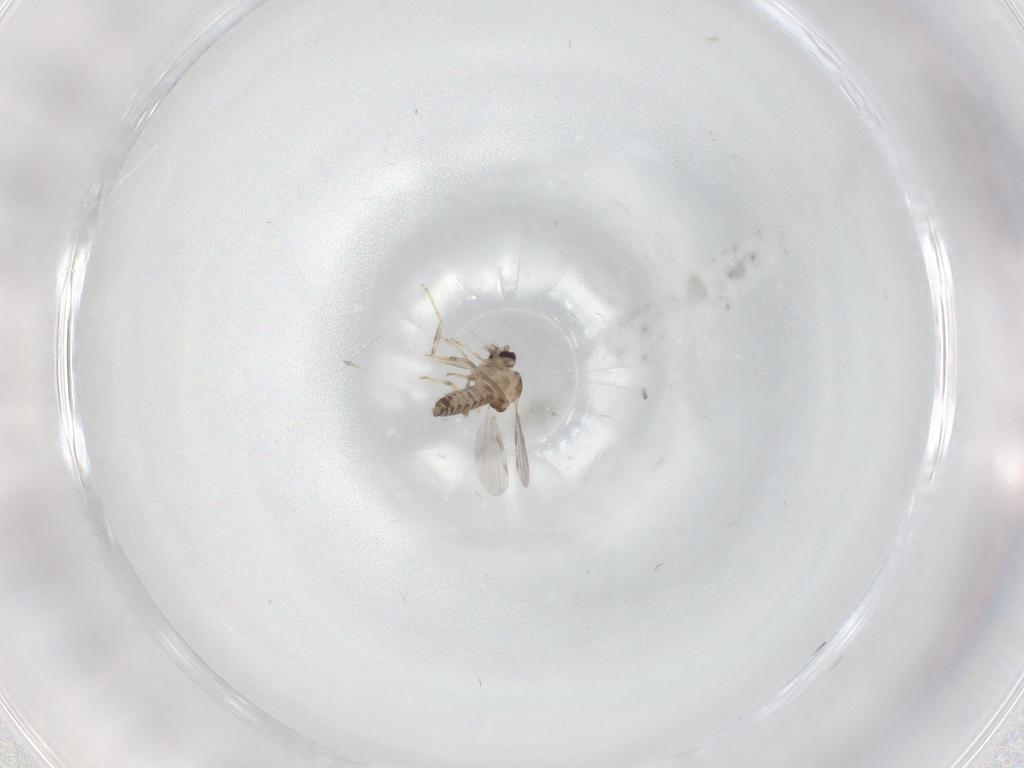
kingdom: Animalia
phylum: Arthropoda
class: Insecta
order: Diptera
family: Ceratopogonidae
